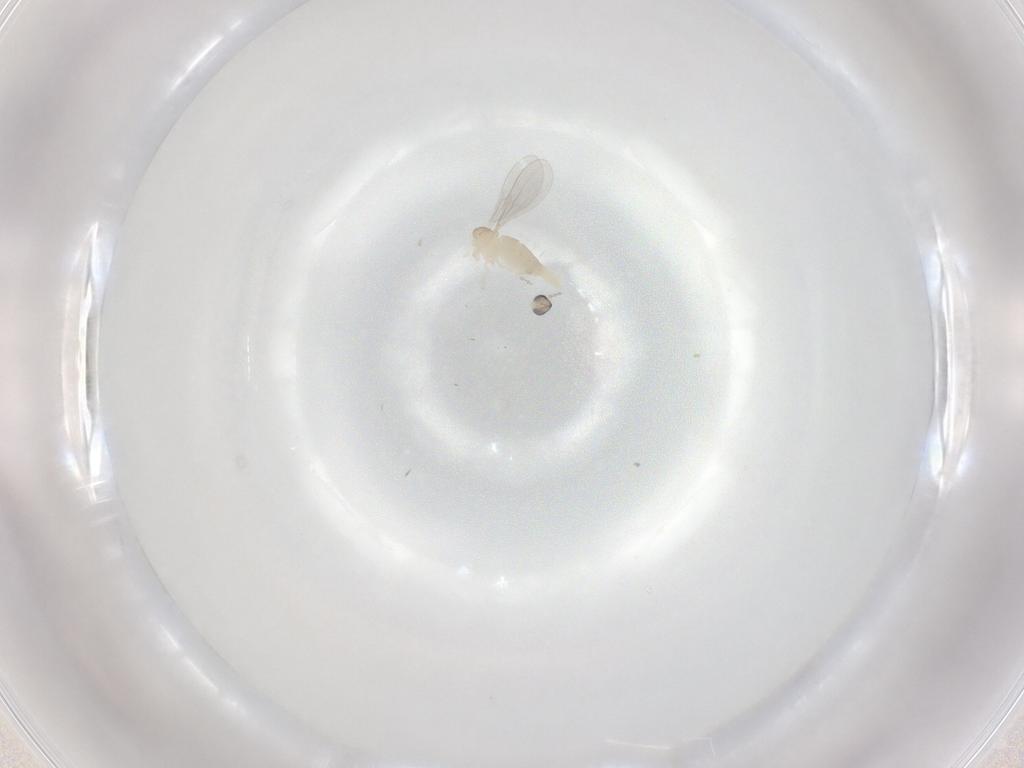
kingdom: Animalia
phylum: Arthropoda
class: Insecta
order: Diptera
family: Cecidomyiidae
